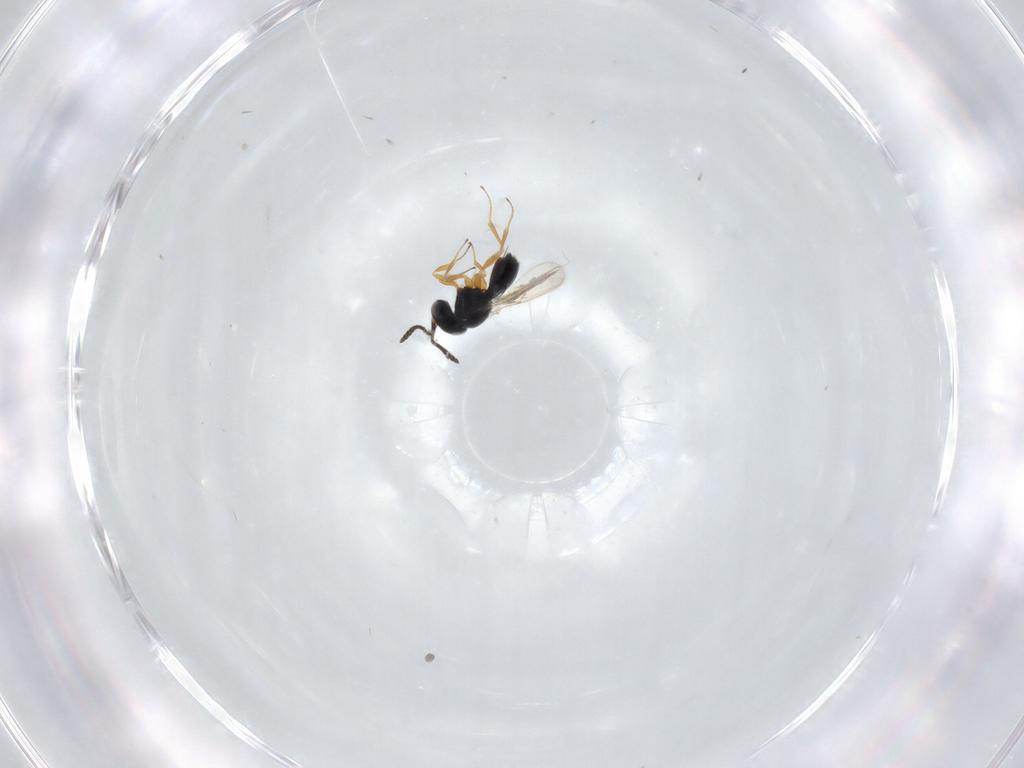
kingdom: Animalia
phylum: Arthropoda
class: Insecta
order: Hymenoptera
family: Scelionidae
